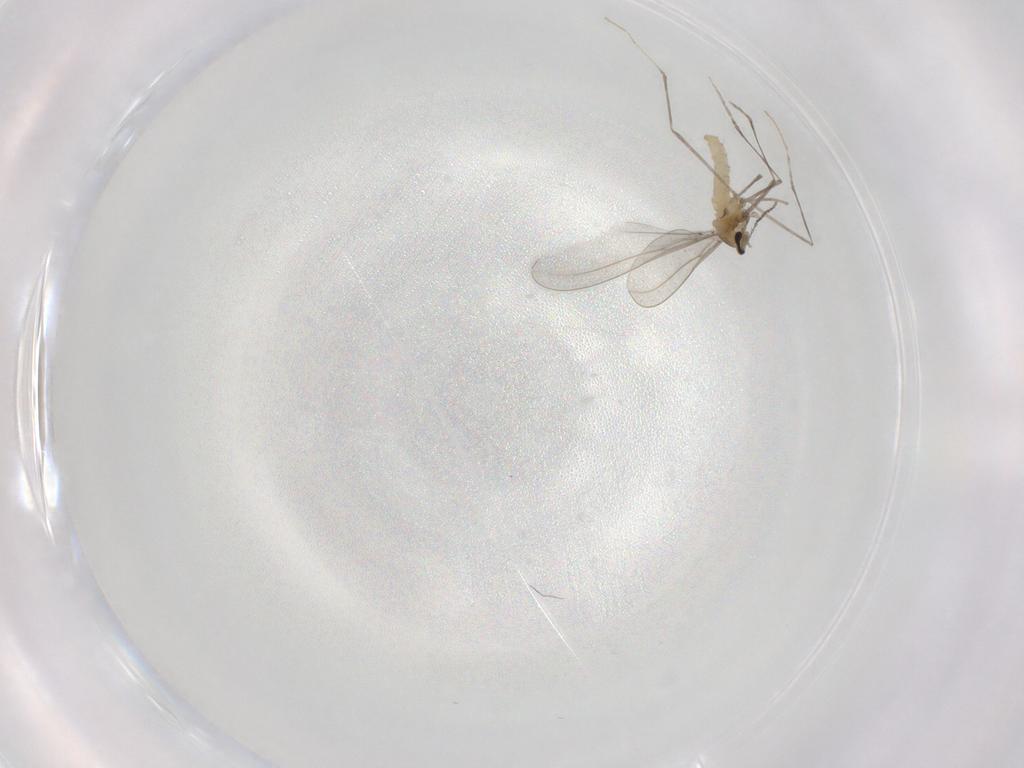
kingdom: Animalia
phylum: Arthropoda
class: Insecta
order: Diptera
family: Cecidomyiidae
